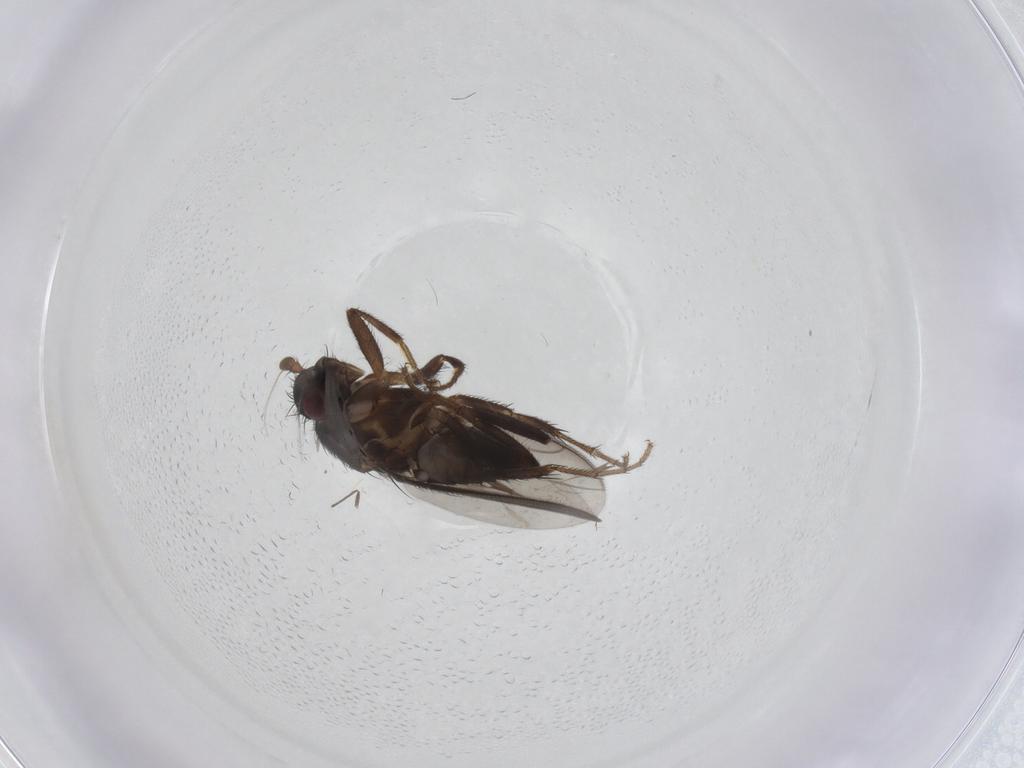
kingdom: Animalia
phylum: Arthropoda
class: Insecta
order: Diptera
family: Cecidomyiidae
